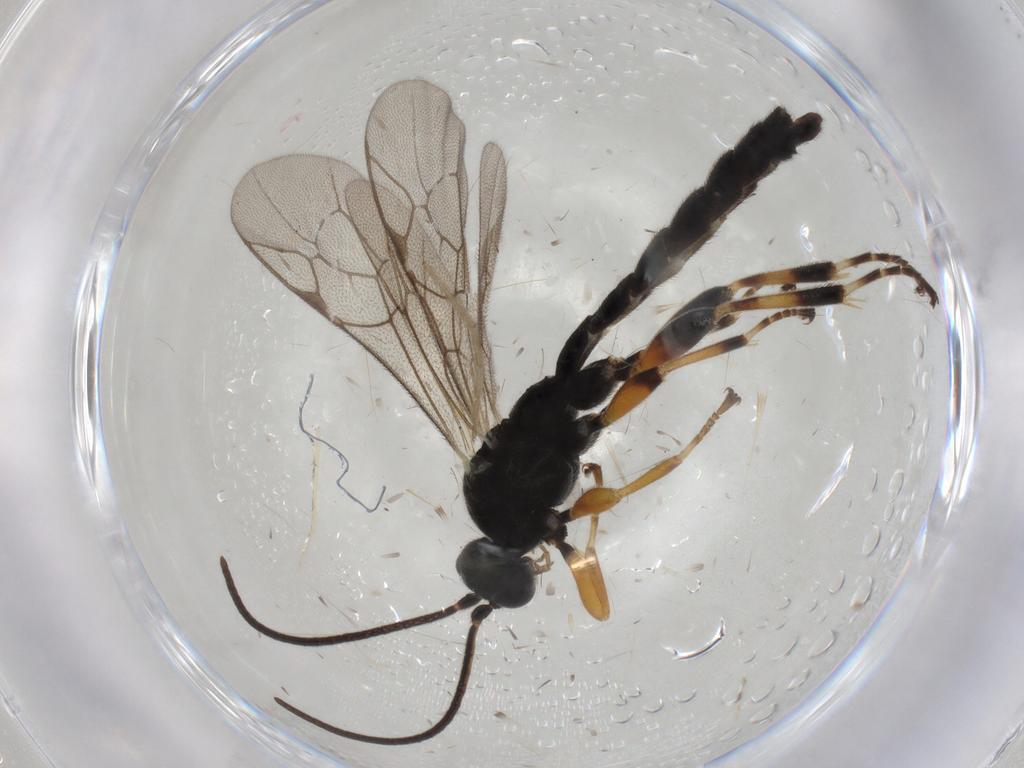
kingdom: Animalia
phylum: Arthropoda
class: Insecta
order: Hymenoptera
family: Ichneumonidae
